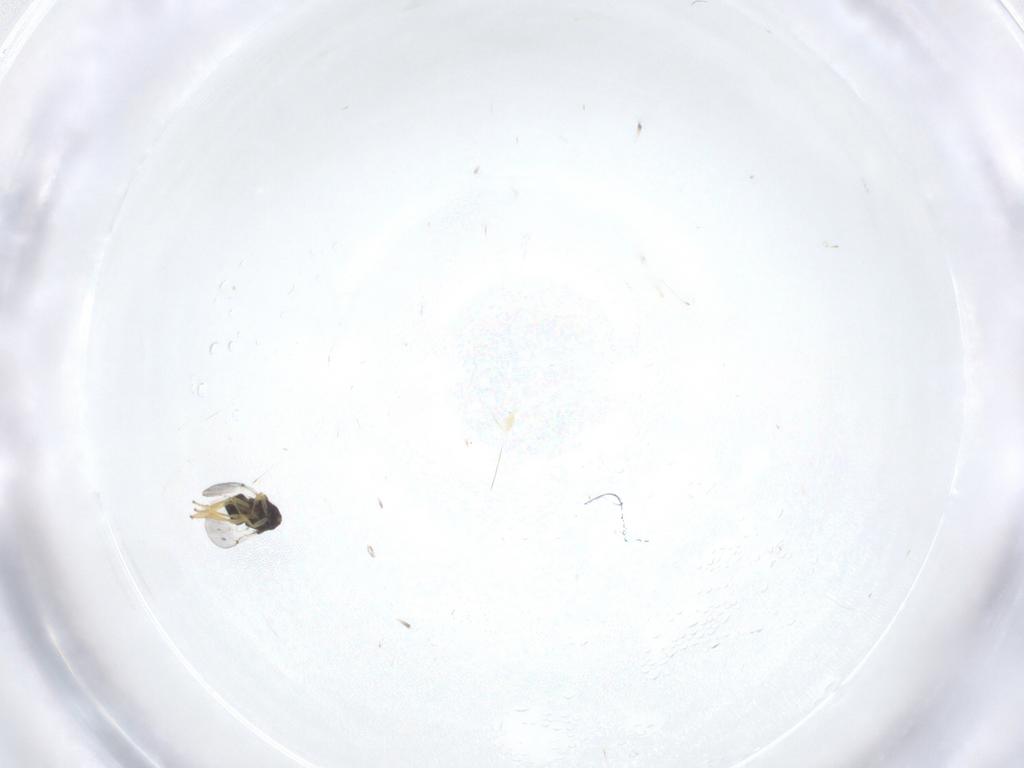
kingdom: Animalia
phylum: Arthropoda
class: Insecta
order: Hymenoptera
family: Encyrtidae
